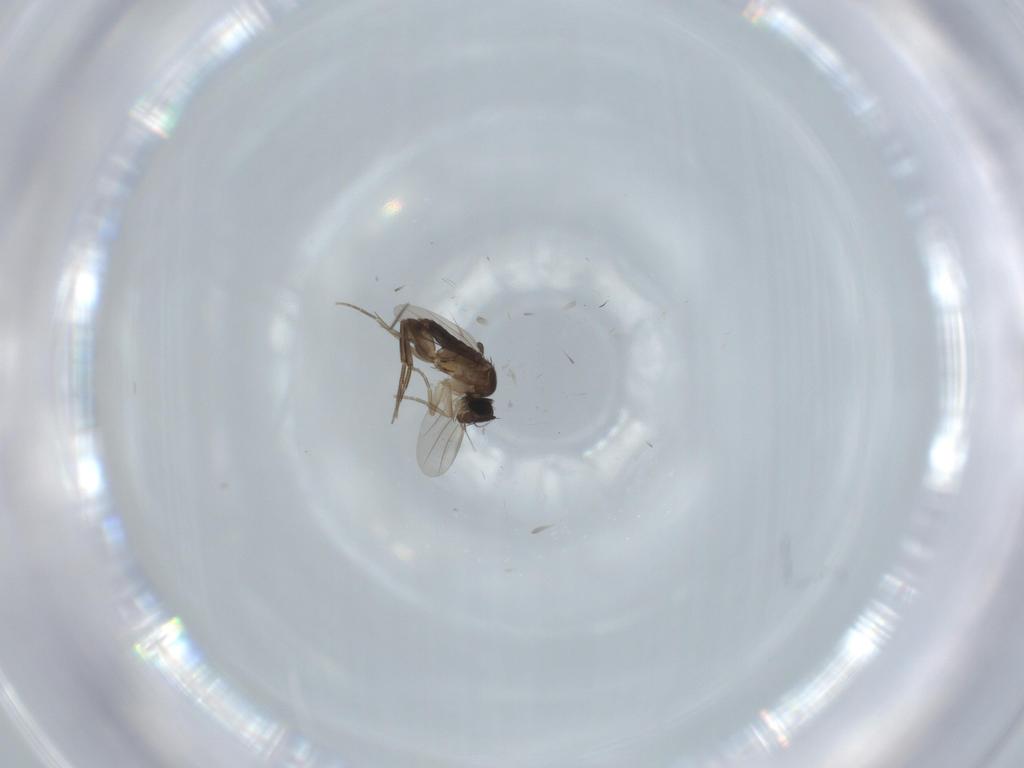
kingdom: Animalia
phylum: Arthropoda
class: Insecta
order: Diptera
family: Phoridae
